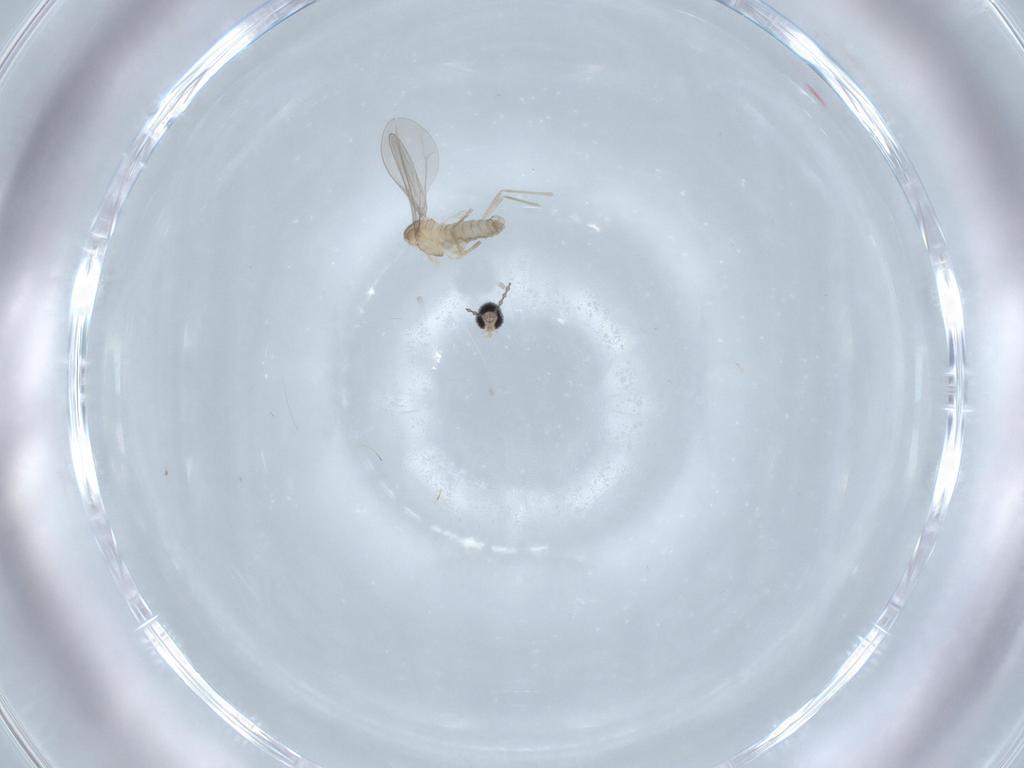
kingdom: Animalia
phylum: Arthropoda
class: Insecta
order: Diptera
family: Cecidomyiidae
